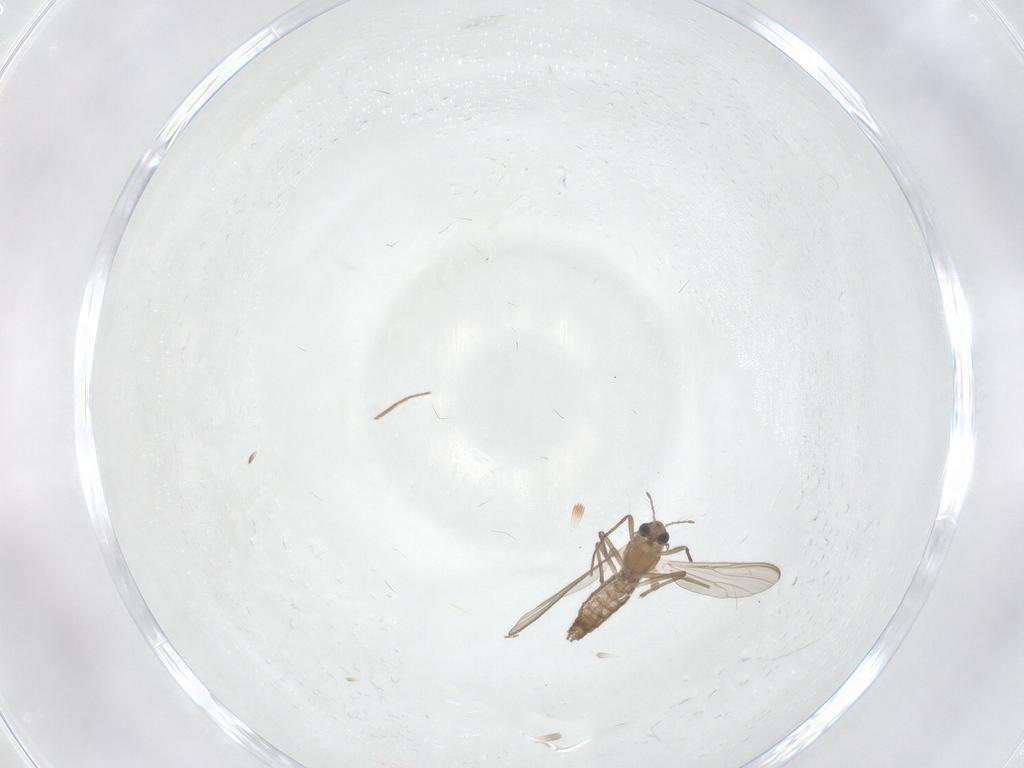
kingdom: Animalia
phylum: Arthropoda
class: Insecta
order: Diptera
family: Chironomidae
